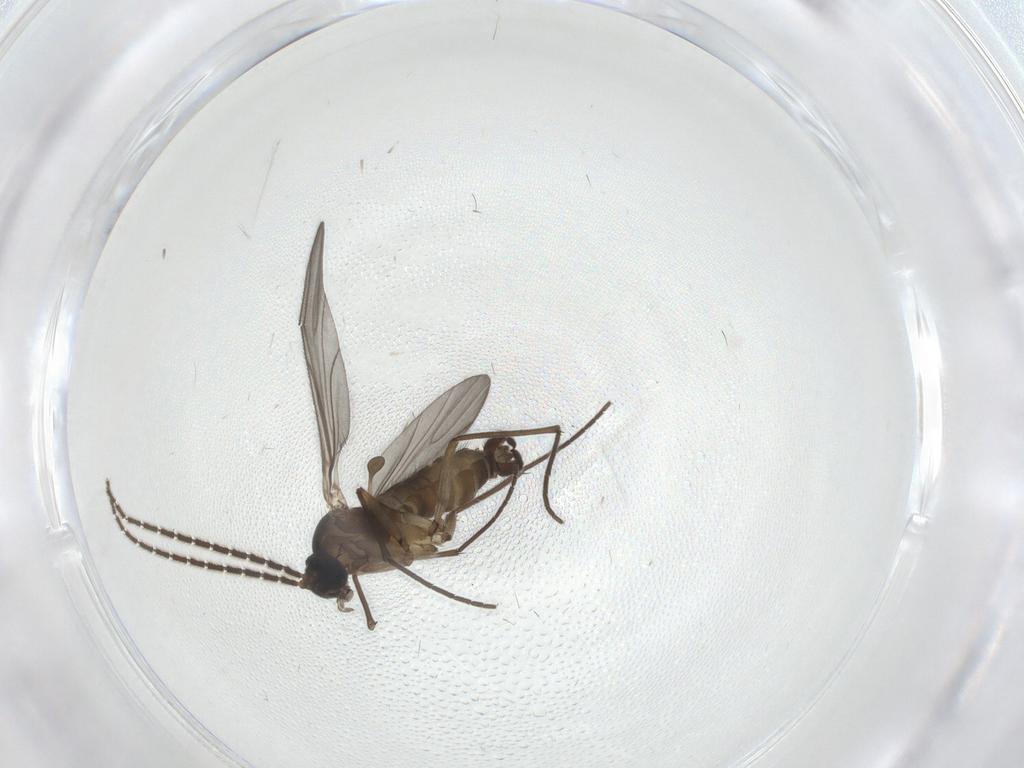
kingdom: Animalia
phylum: Arthropoda
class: Insecta
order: Diptera
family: Sciaridae
